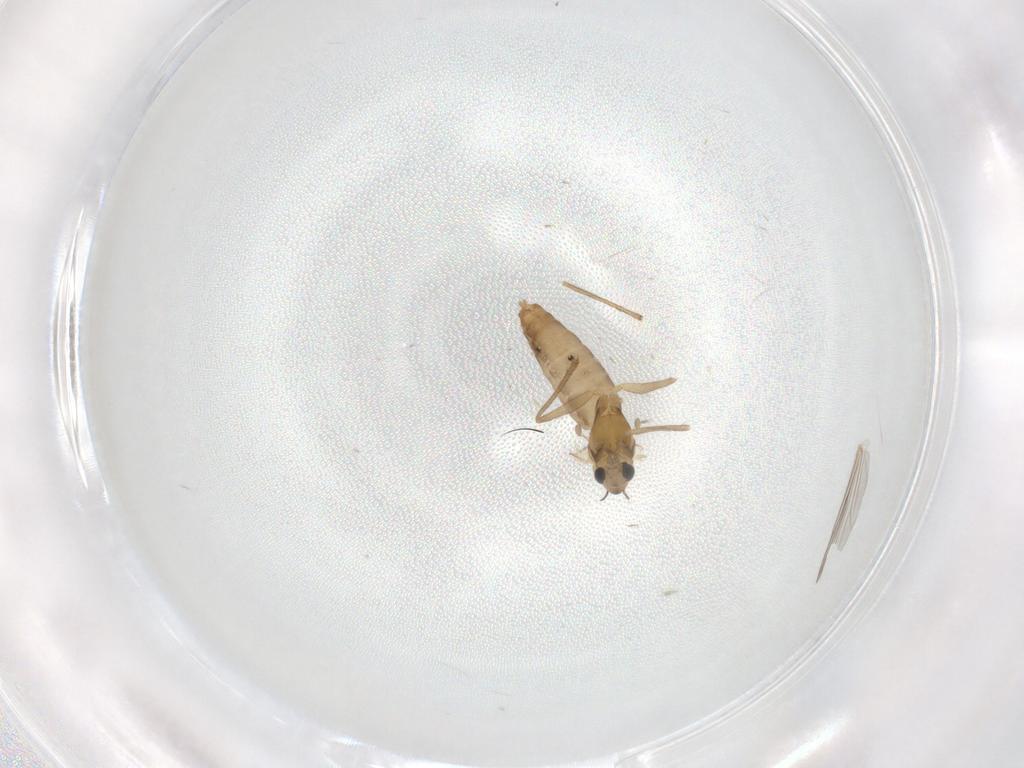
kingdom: Animalia
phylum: Arthropoda
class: Insecta
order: Diptera
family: Chironomidae
